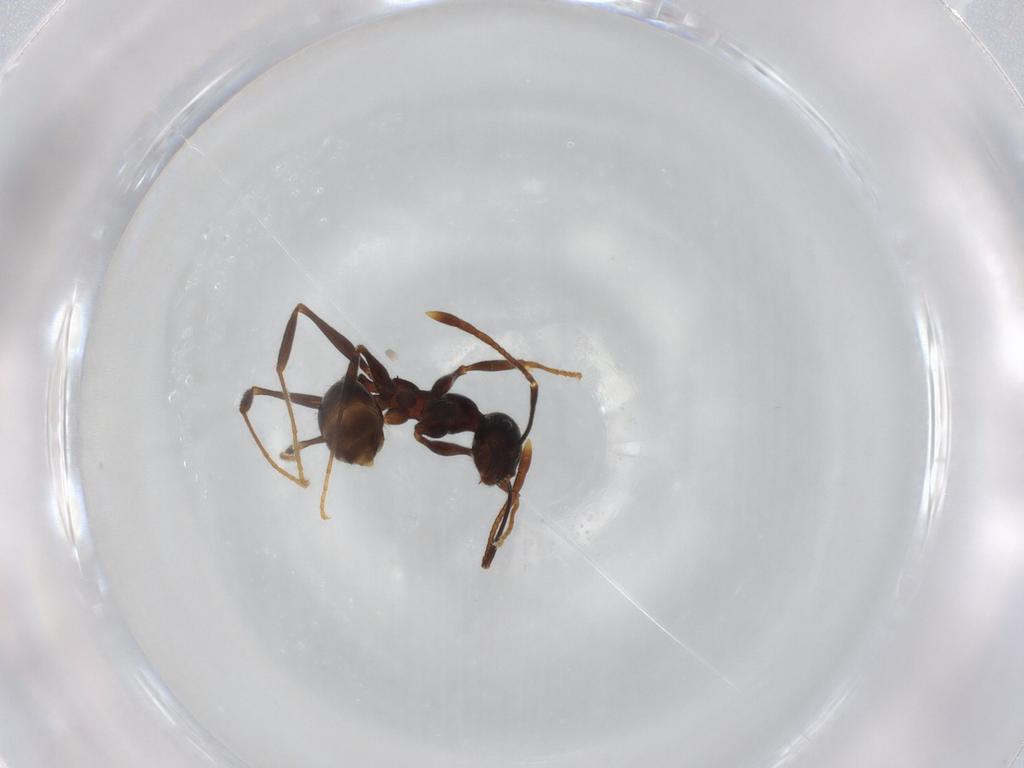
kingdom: Animalia
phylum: Arthropoda
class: Insecta
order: Hymenoptera
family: Formicidae
